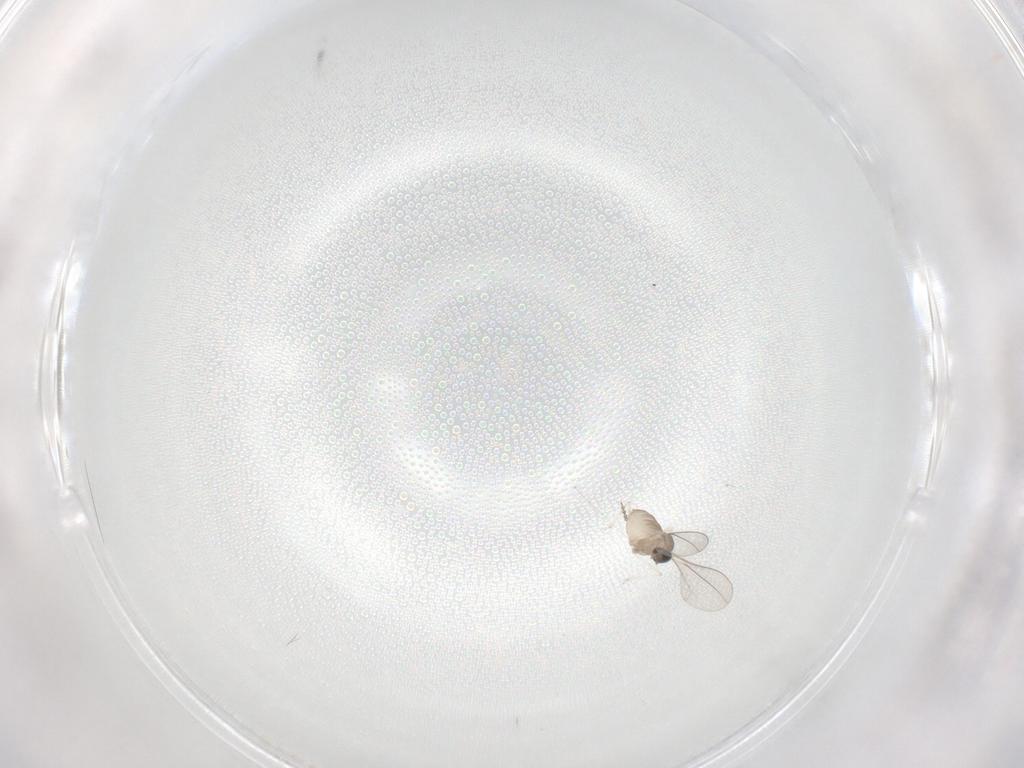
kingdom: Animalia
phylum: Arthropoda
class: Insecta
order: Diptera
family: Cecidomyiidae
